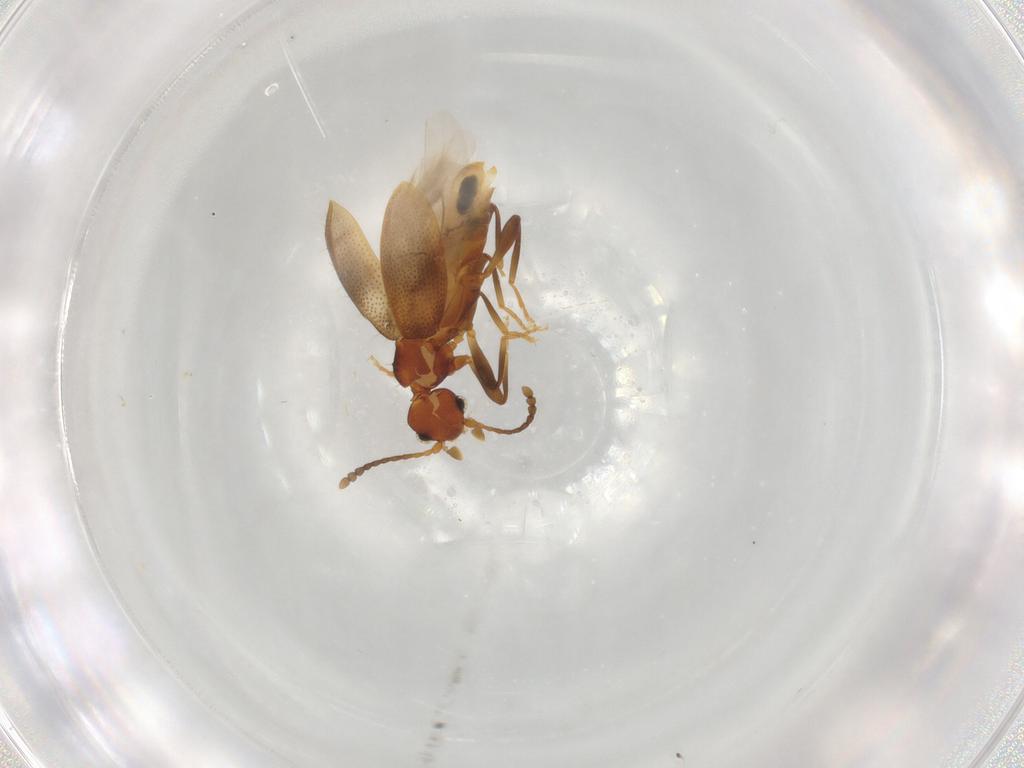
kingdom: Animalia
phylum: Arthropoda
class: Insecta
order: Coleoptera
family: Anthicidae
